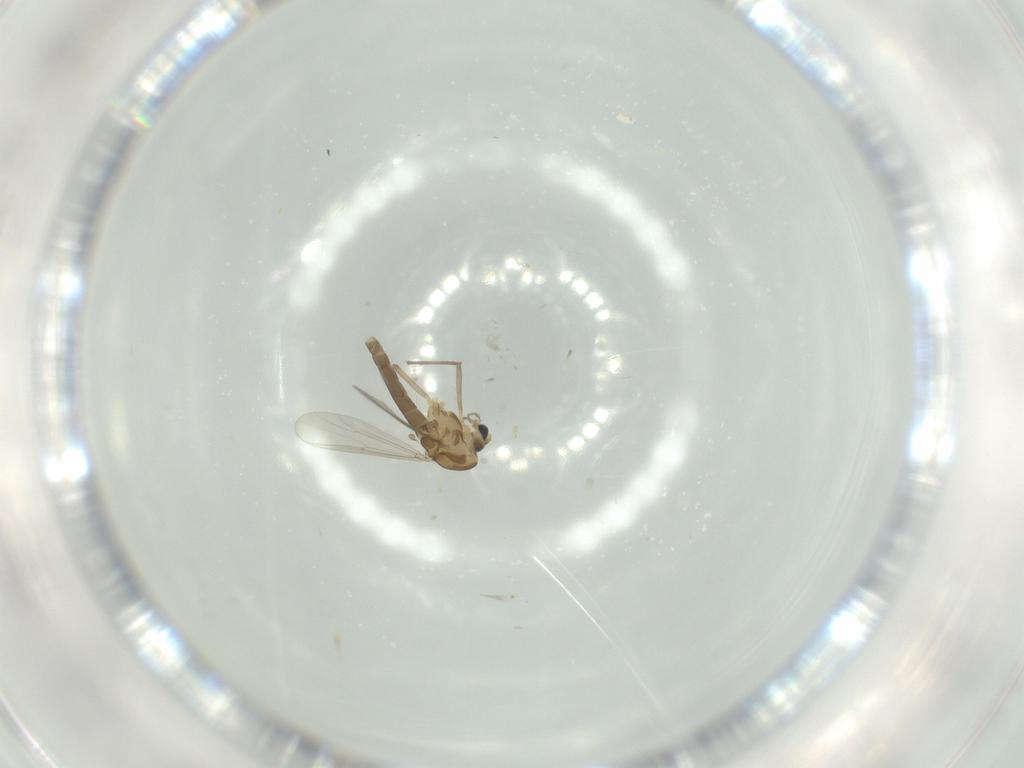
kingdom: Animalia
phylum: Arthropoda
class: Insecta
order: Diptera
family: Chironomidae
